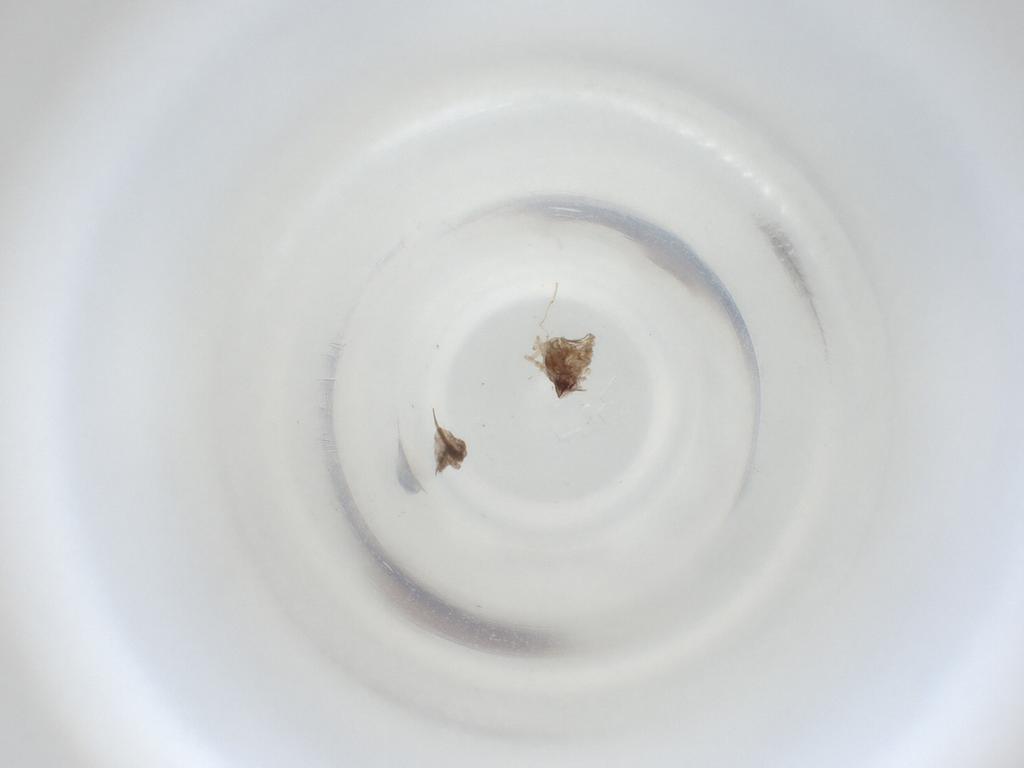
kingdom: Animalia
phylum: Arthropoda
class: Insecta
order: Diptera
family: Cecidomyiidae
